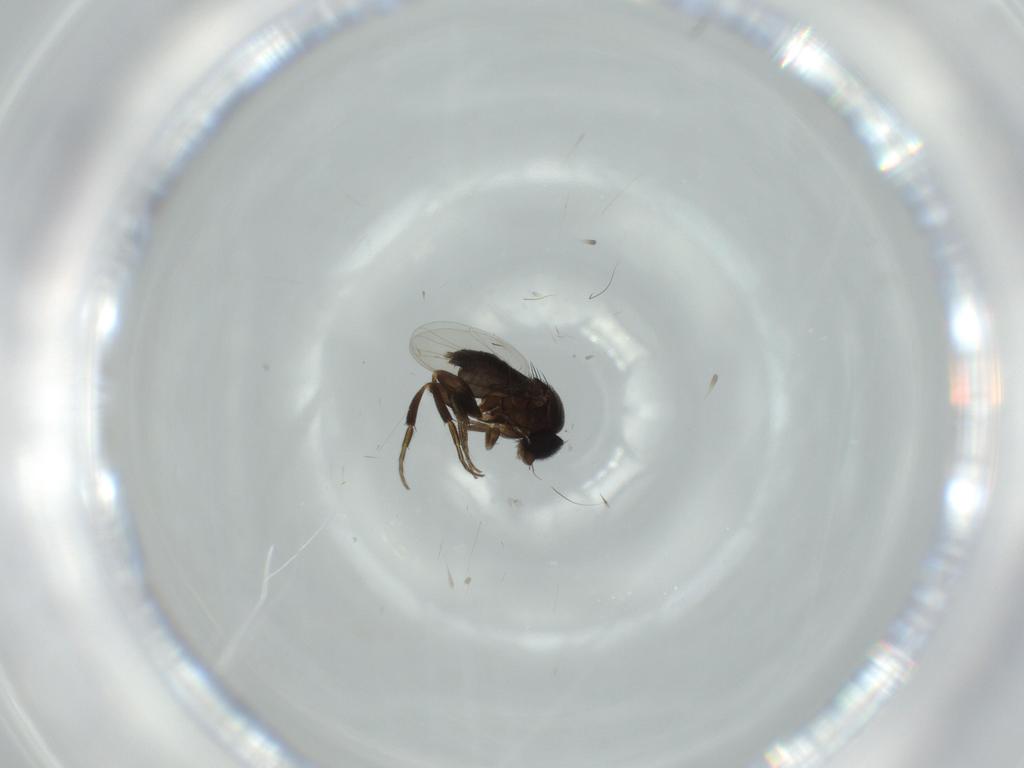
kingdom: Animalia
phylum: Arthropoda
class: Insecta
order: Diptera
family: Phoridae
